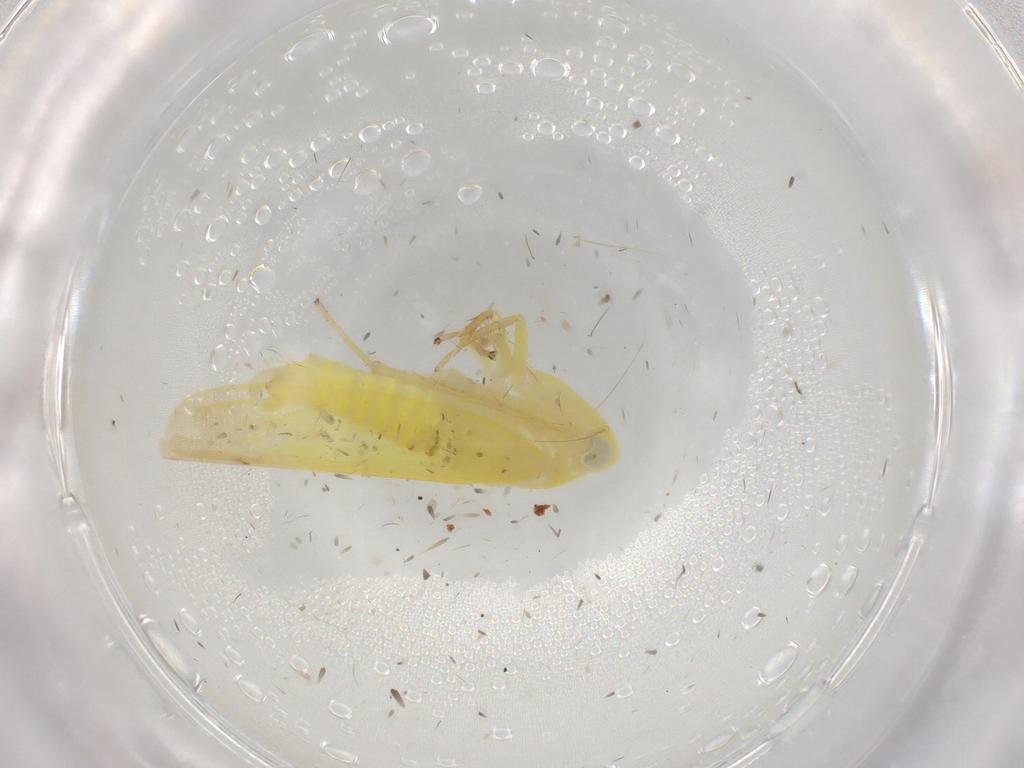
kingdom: Animalia
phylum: Arthropoda
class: Insecta
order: Hemiptera
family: Cicadellidae
